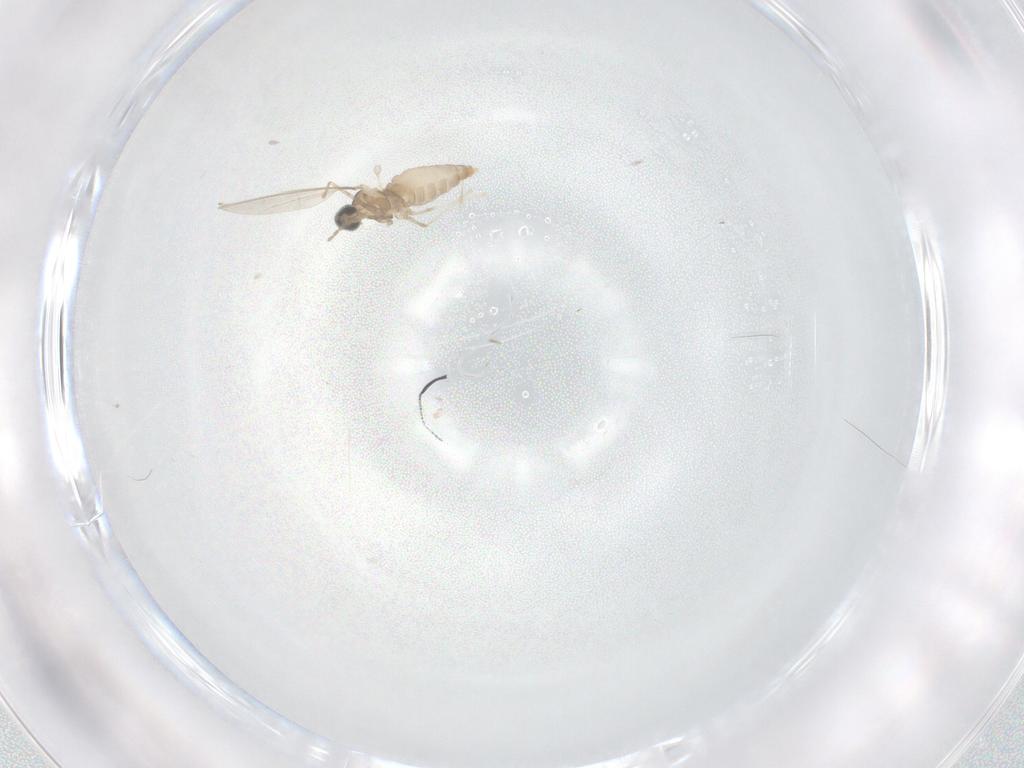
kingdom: Animalia
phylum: Arthropoda
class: Insecta
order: Diptera
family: Cecidomyiidae
